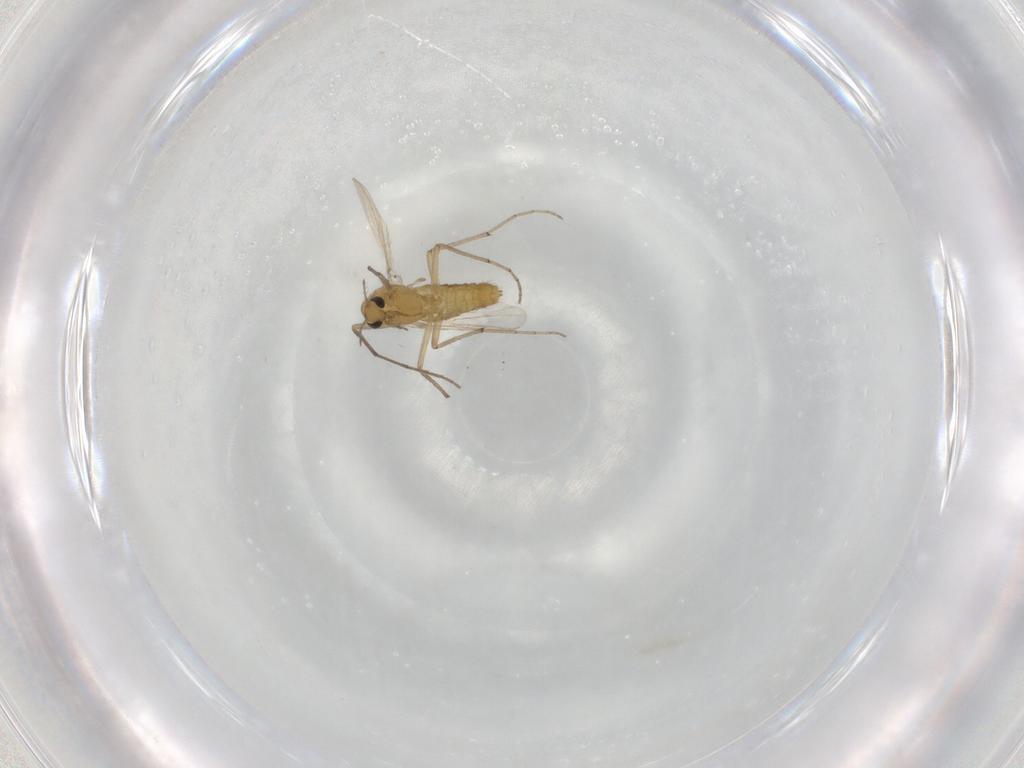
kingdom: Animalia
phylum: Arthropoda
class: Insecta
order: Diptera
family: Chironomidae
